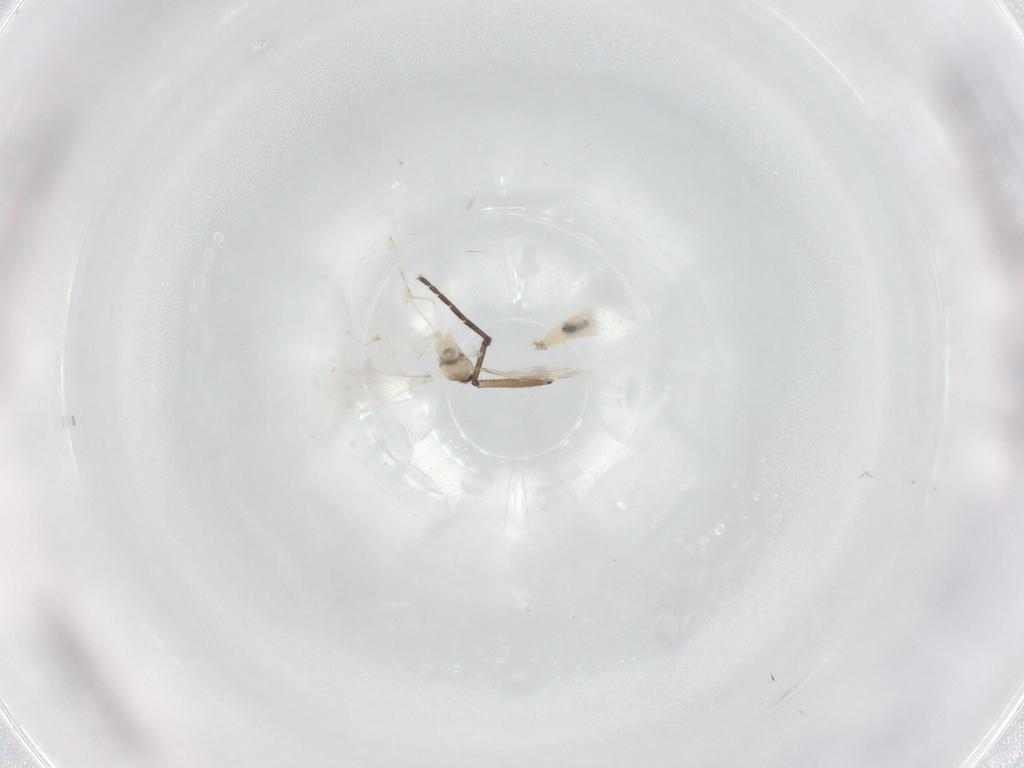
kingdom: Animalia
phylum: Arthropoda
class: Insecta
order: Diptera
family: Cecidomyiidae
